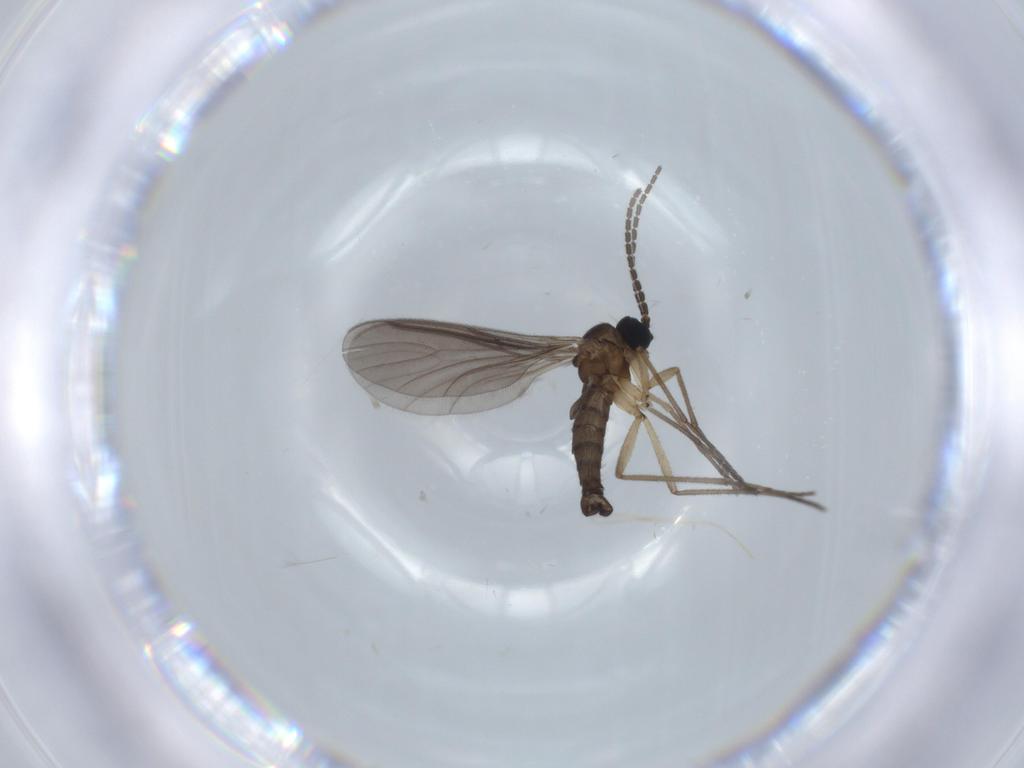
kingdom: Animalia
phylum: Arthropoda
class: Insecta
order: Diptera
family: Sciaridae
